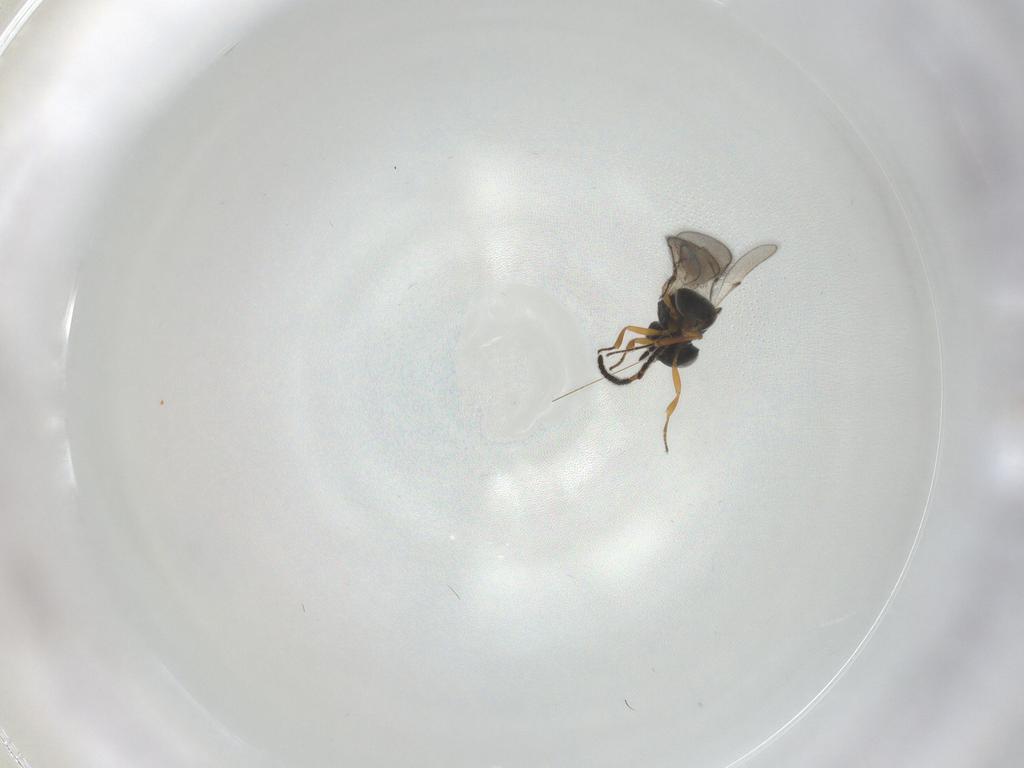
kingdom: Animalia
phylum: Arthropoda
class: Insecta
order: Hymenoptera
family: Scelionidae
